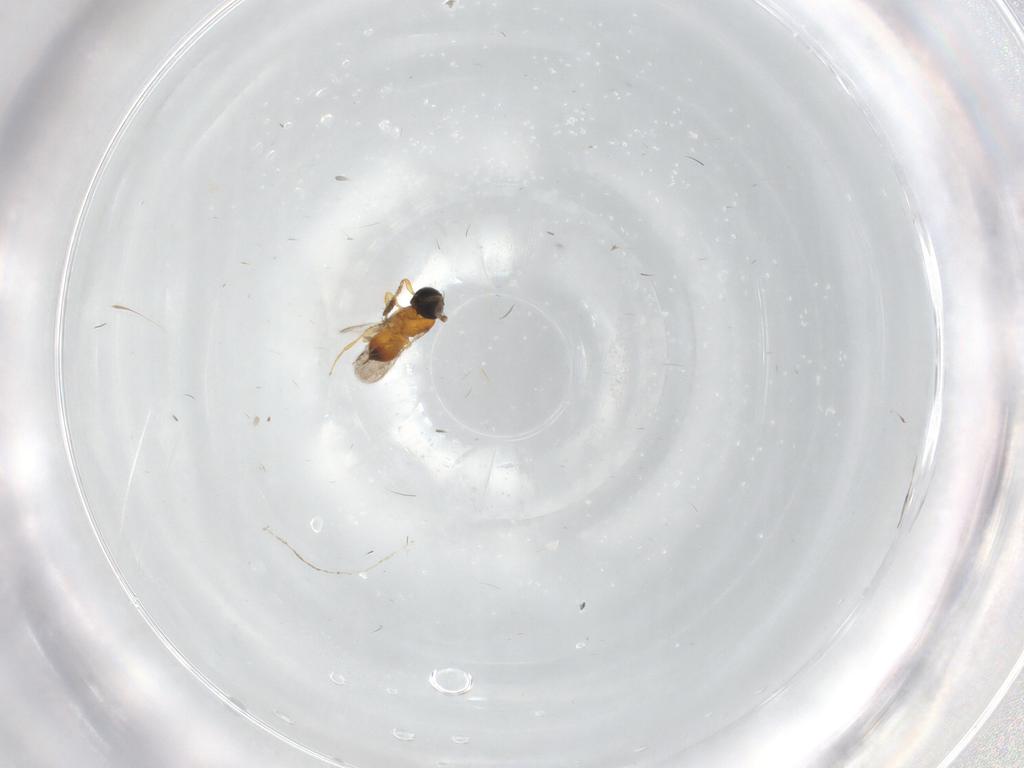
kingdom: Animalia
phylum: Arthropoda
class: Insecta
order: Hymenoptera
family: Scelionidae
